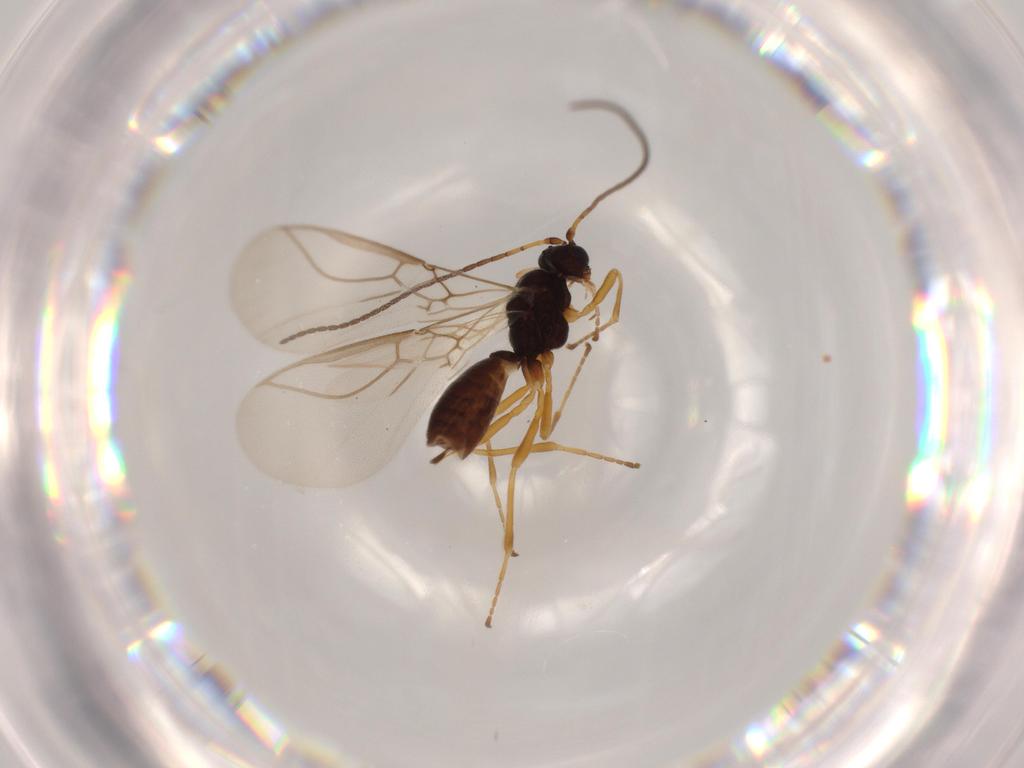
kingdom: Animalia
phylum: Arthropoda
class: Insecta
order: Hymenoptera
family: Braconidae
